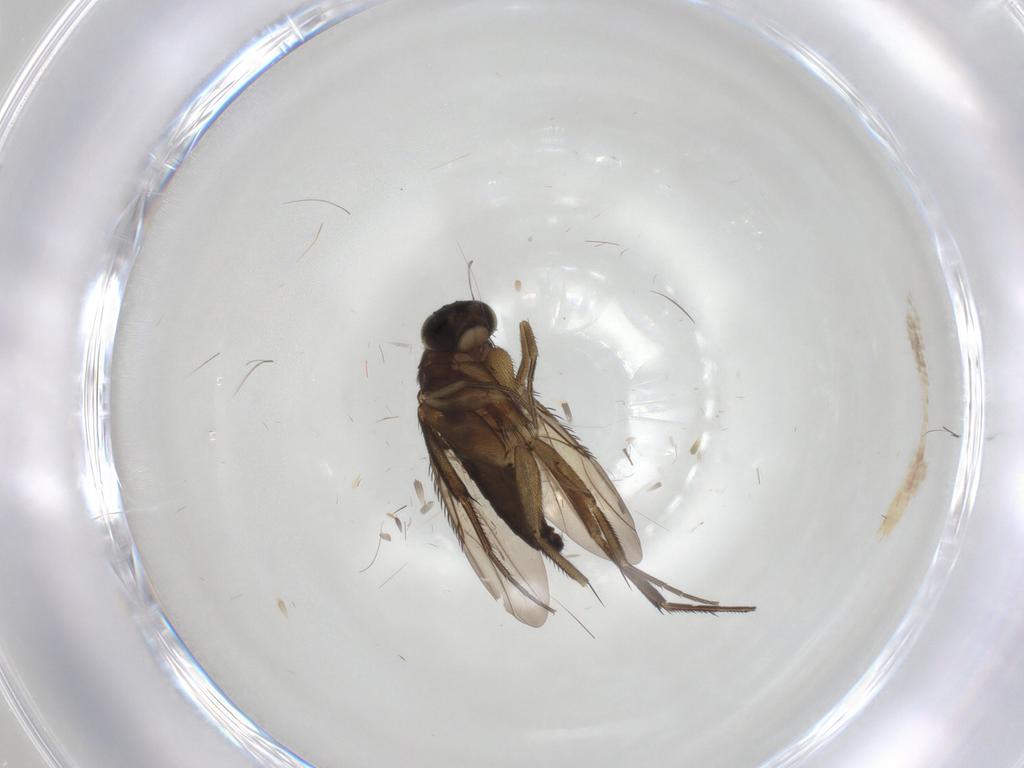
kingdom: Animalia
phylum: Arthropoda
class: Insecta
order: Diptera
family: Phoridae
